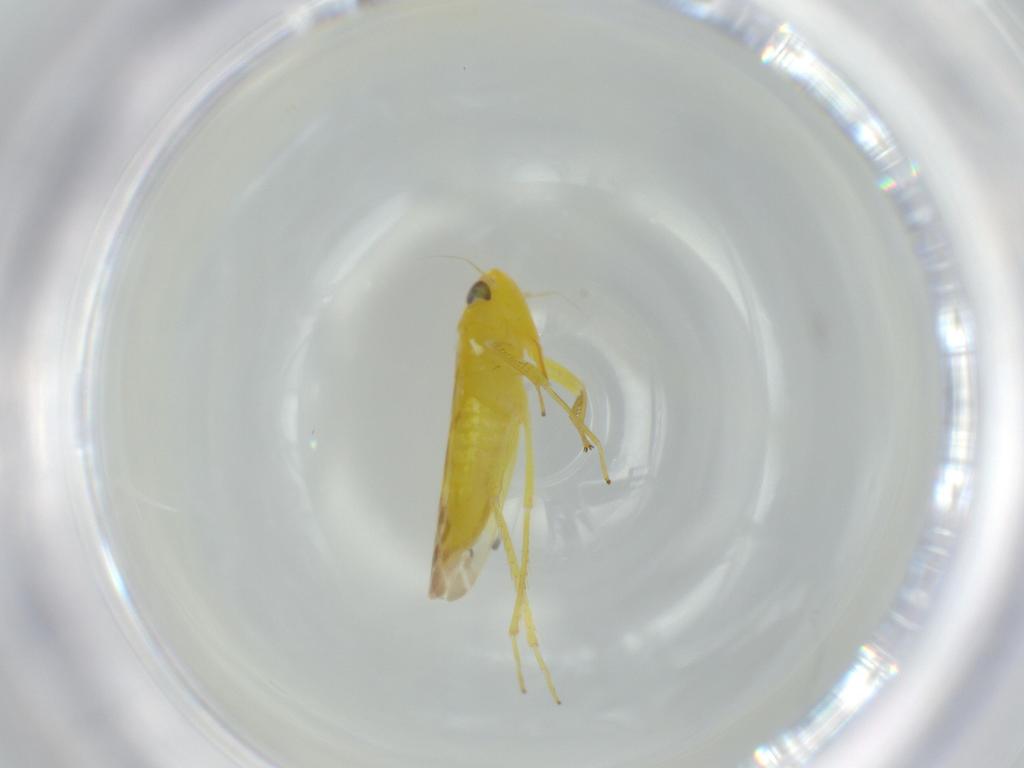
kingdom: Animalia
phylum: Arthropoda
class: Insecta
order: Hemiptera
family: Cicadellidae
